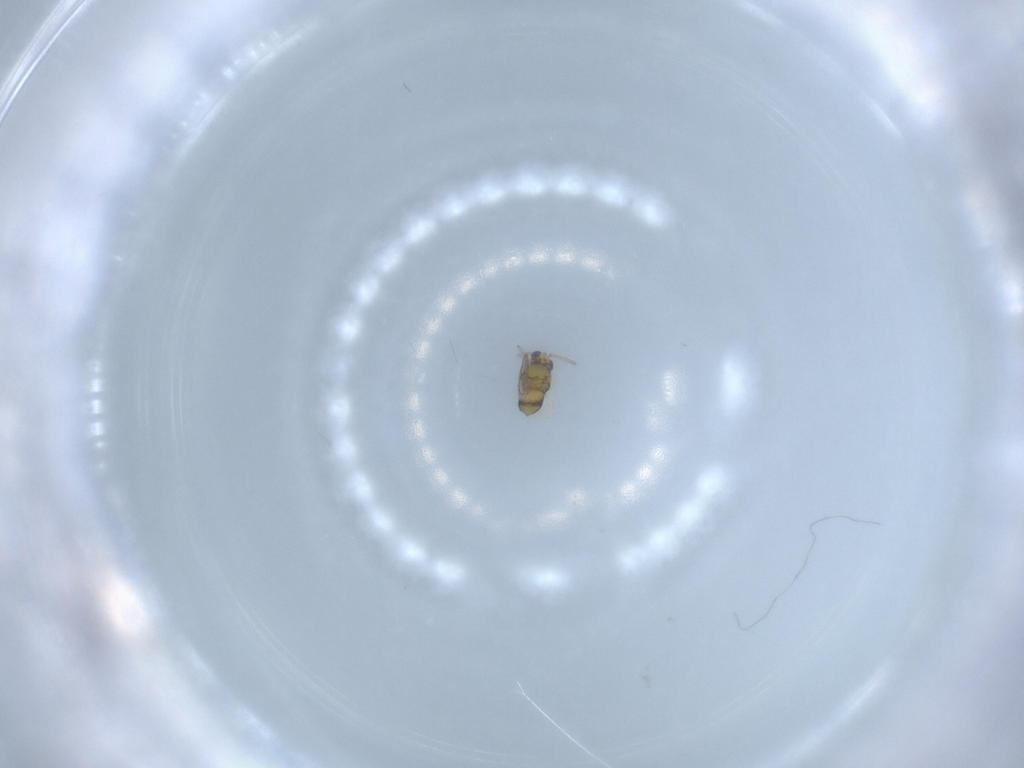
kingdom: Animalia
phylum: Arthropoda
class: Insecta
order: Hymenoptera
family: Aphelinidae
